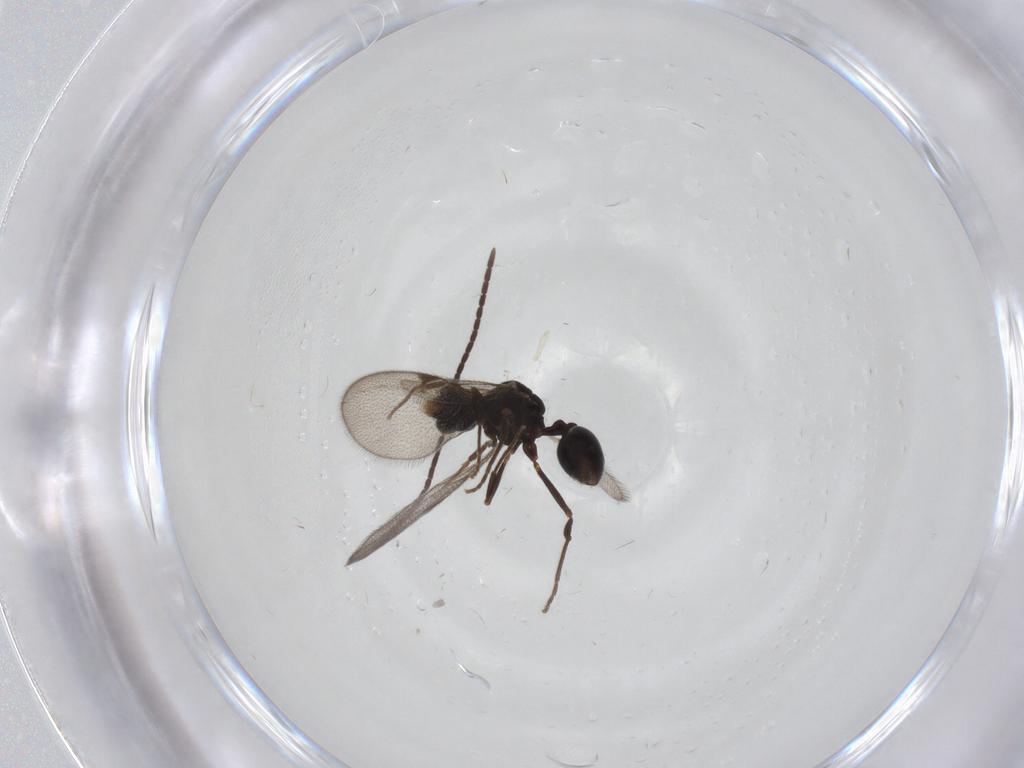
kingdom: Animalia
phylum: Arthropoda
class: Insecta
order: Hymenoptera
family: Formicidae
